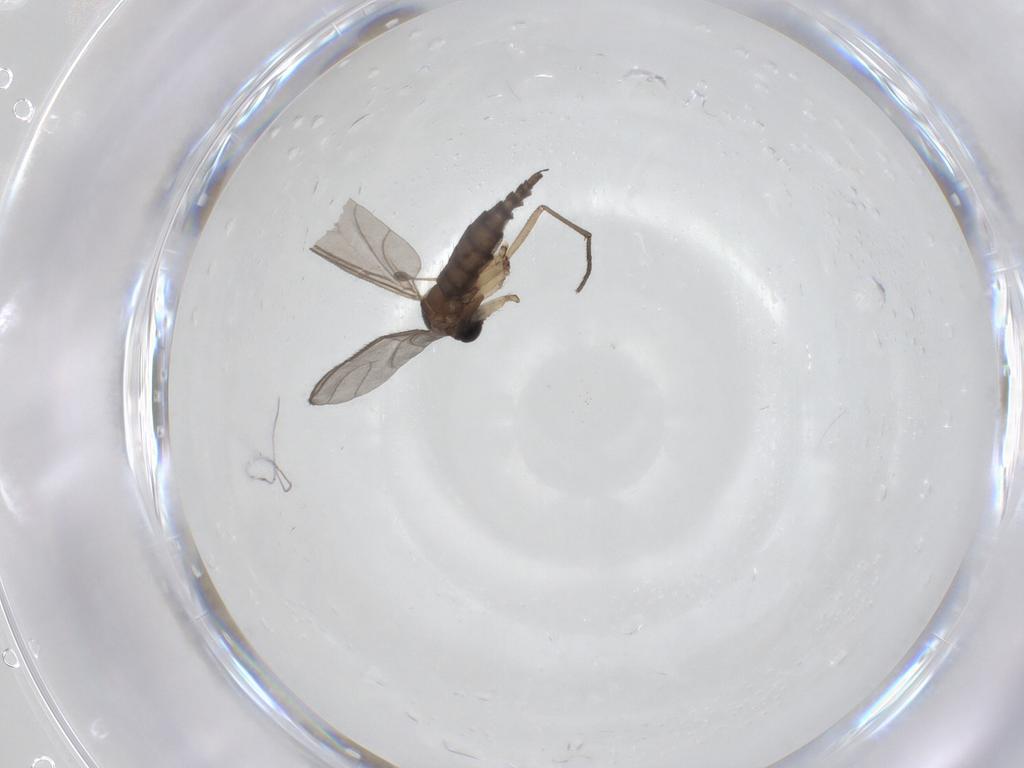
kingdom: Animalia
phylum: Arthropoda
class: Insecta
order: Diptera
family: Sciaridae
